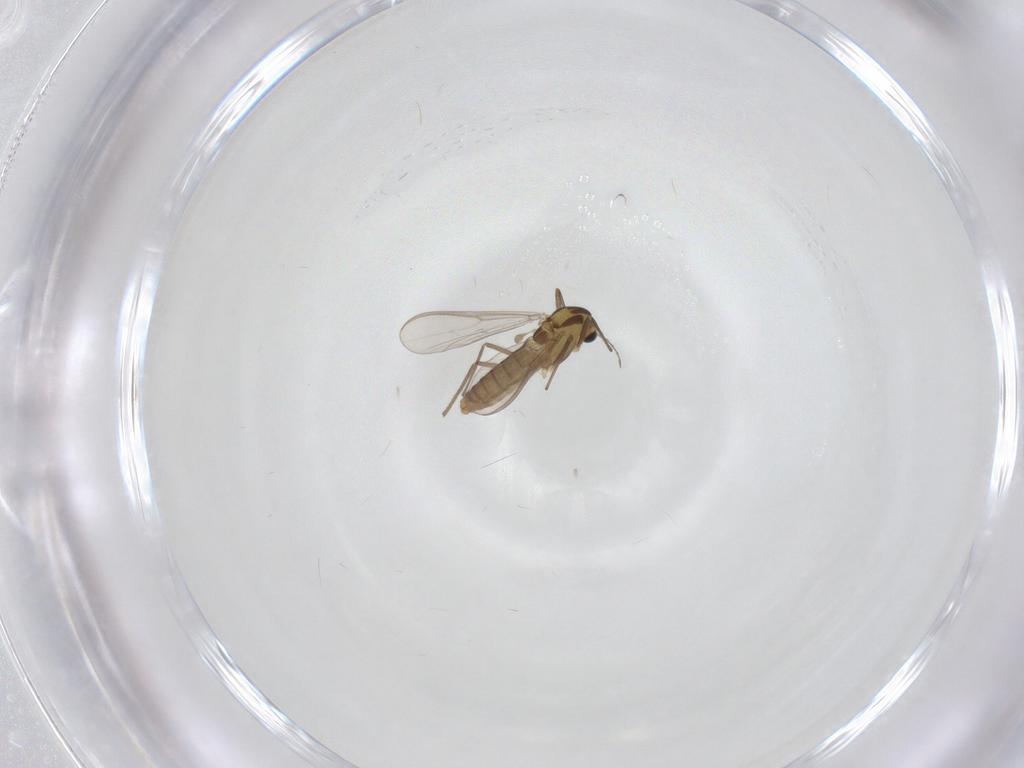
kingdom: Animalia
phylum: Arthropoda
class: Insecta
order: Diptera
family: Chironomidae
